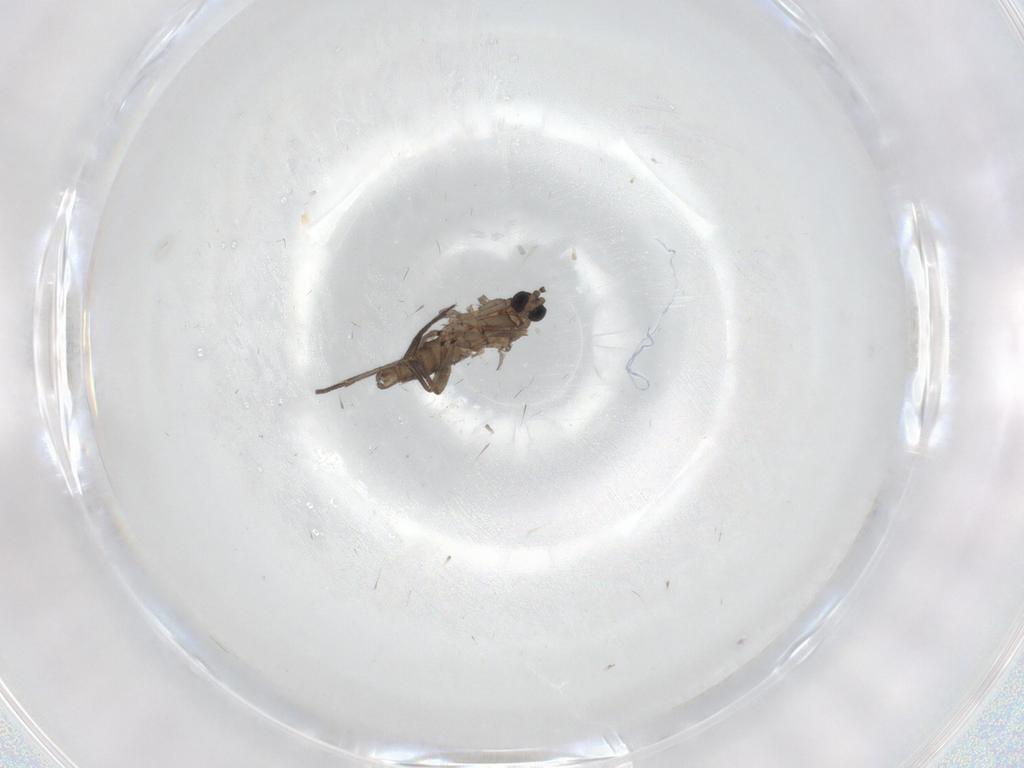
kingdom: Animalia
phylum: Arthropoda
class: Insecta
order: Diptera
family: Sciaridae
